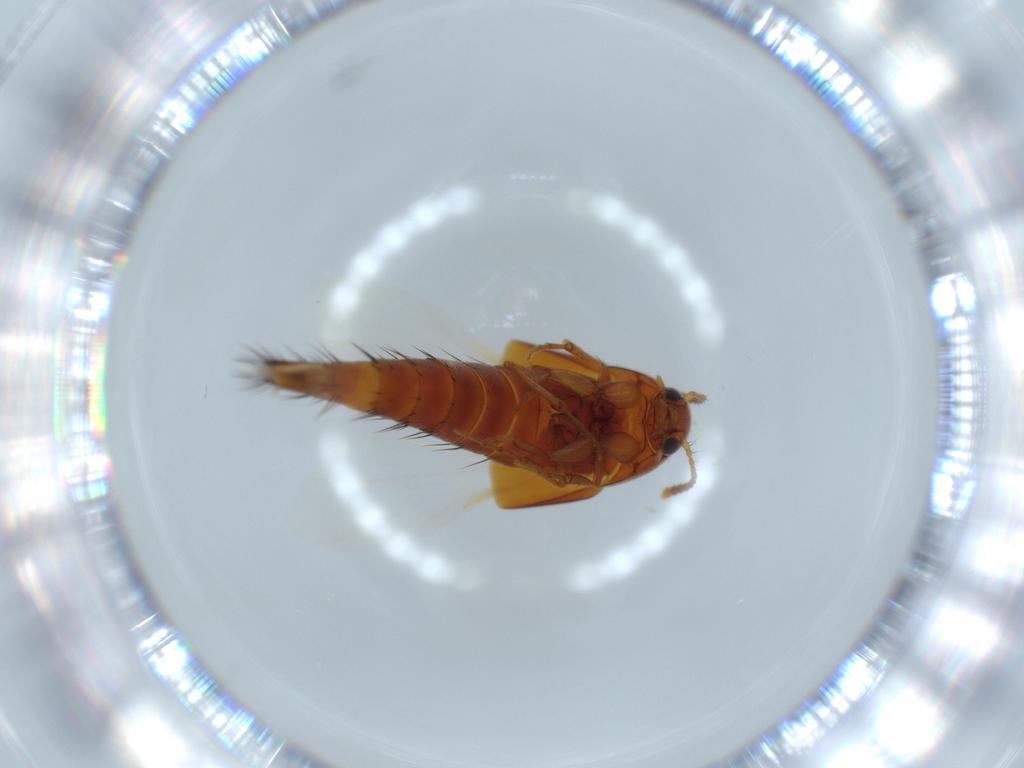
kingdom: Animalia
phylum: Arthropoda
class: Insecta
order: Coleoptera
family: Staphylinidae
